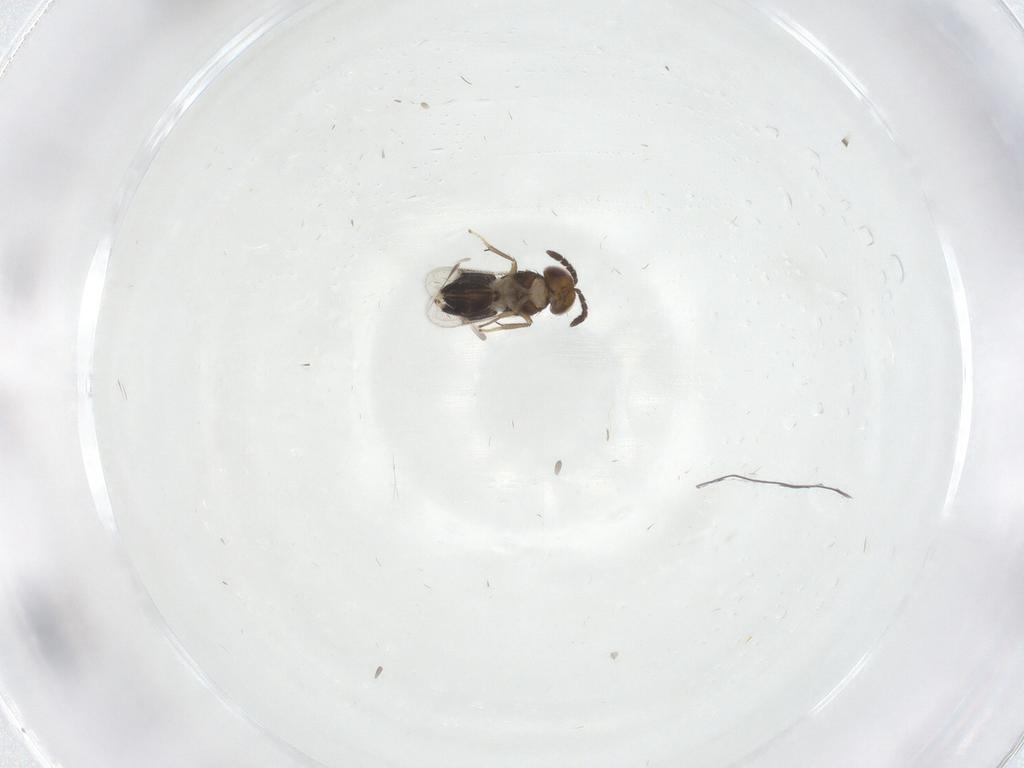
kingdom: Animalia
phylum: Arthropoda
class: Insecta
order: Hymenoptera
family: Aphelinidae
